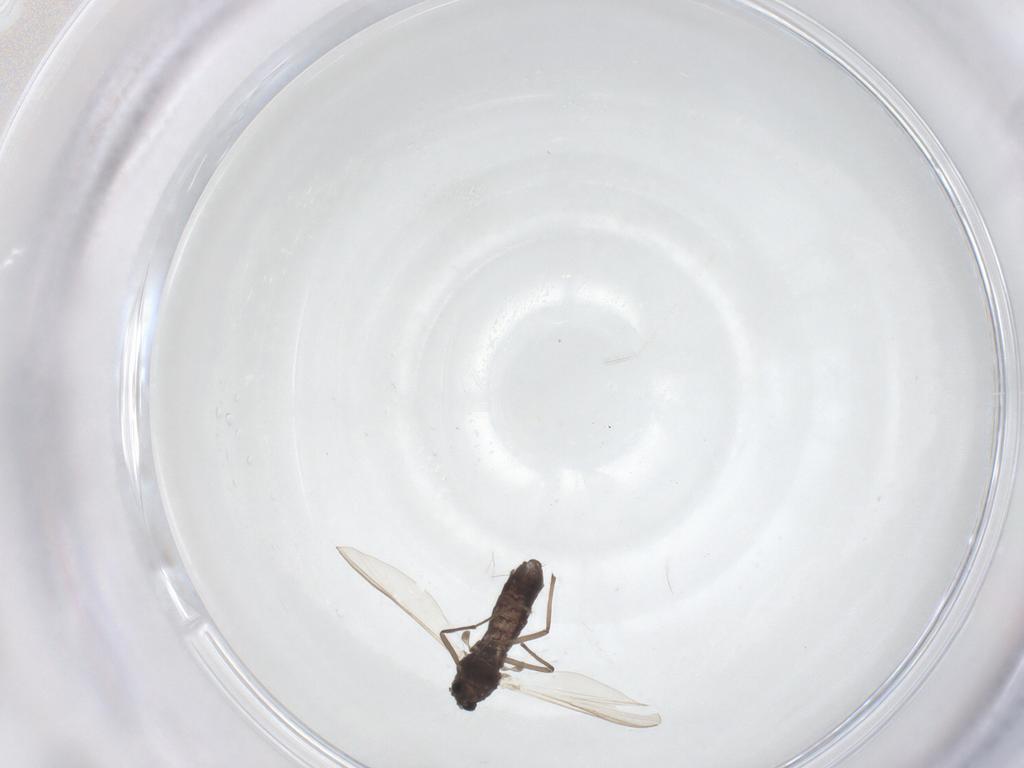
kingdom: Animalia
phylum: Arthropoda
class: Insecta
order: Diptera
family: Chironomidae
